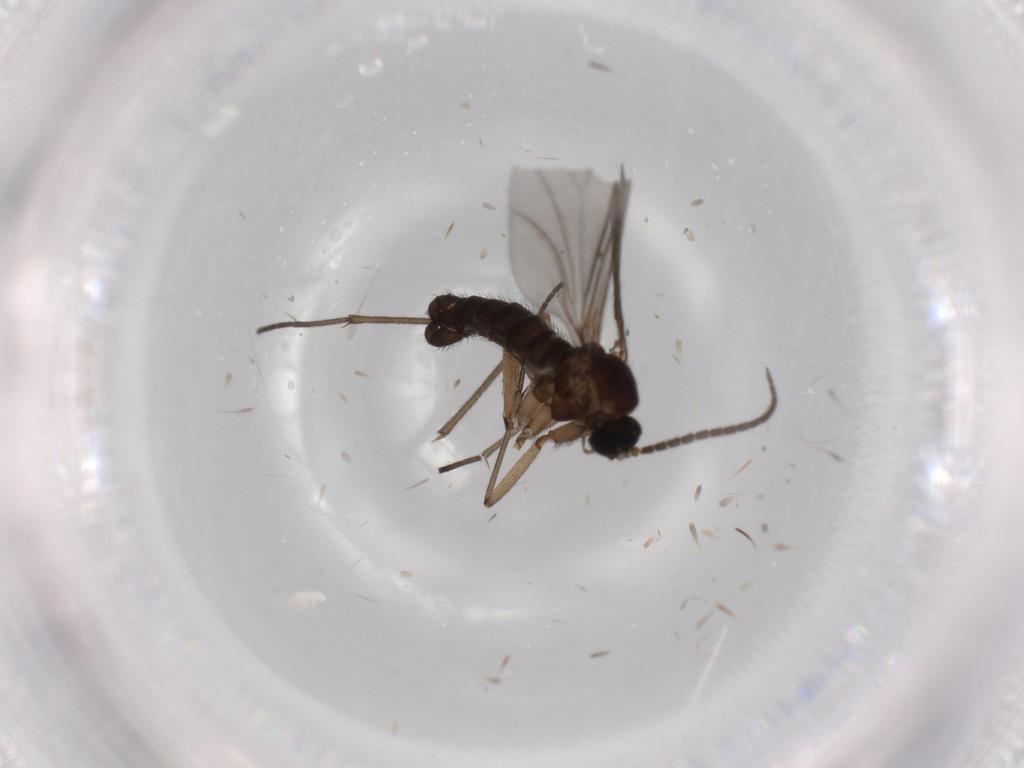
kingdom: Animalia
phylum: Arthropoda
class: Insecta
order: Diptera
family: Sciaridae
